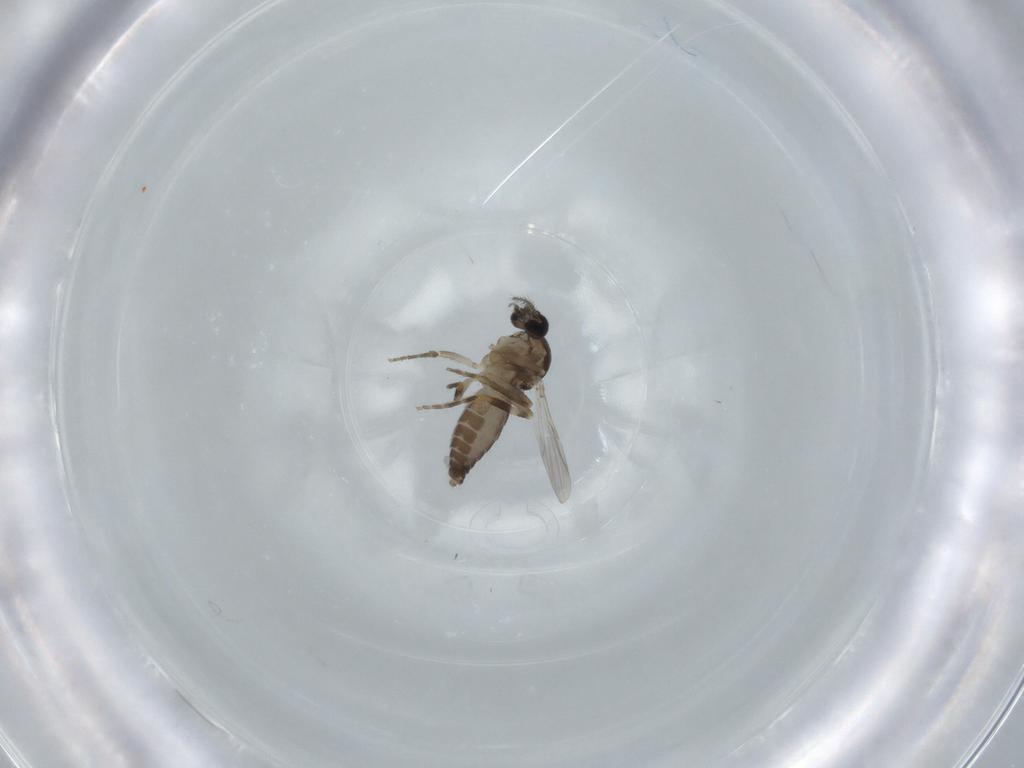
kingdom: Animalia
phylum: Arthropoda
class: Insecta
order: Diptera
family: Ceratopogonidae
